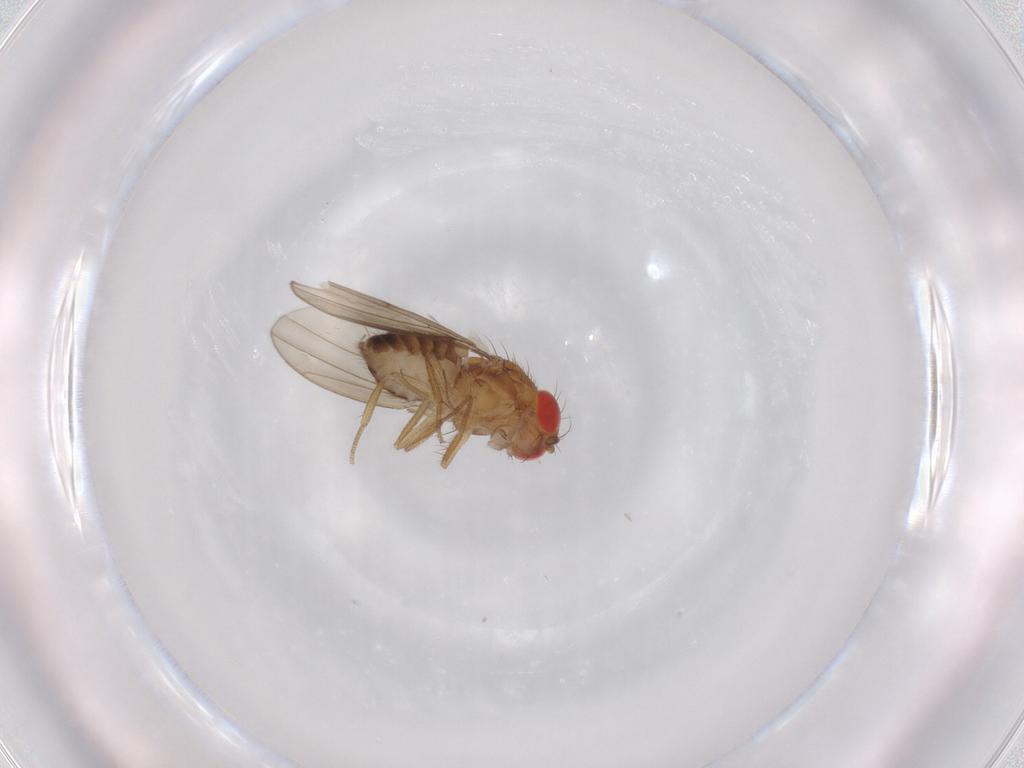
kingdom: Animalia
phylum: Arthropoda
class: Insecta
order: Diptera
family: Drosophilidae
